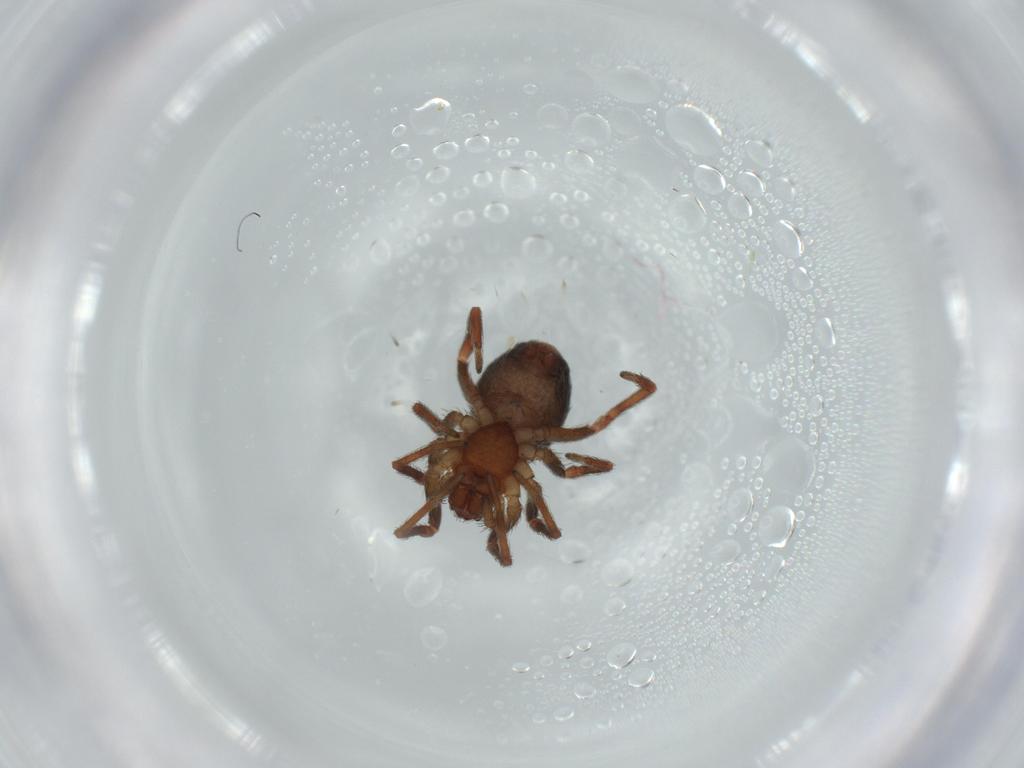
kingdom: Animalia
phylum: Arthropoda
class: Arachnida
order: Araneae
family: Dictynidae
